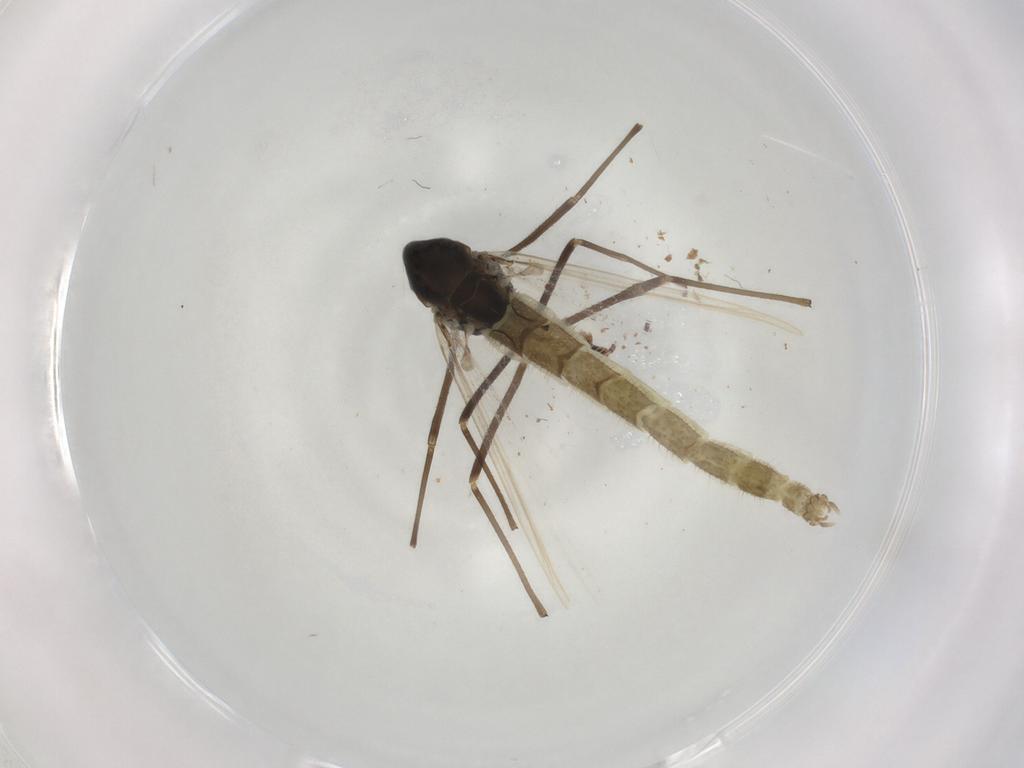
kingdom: Animalia
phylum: Arthropoda
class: Insecta
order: Diptera
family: Chironomidae
